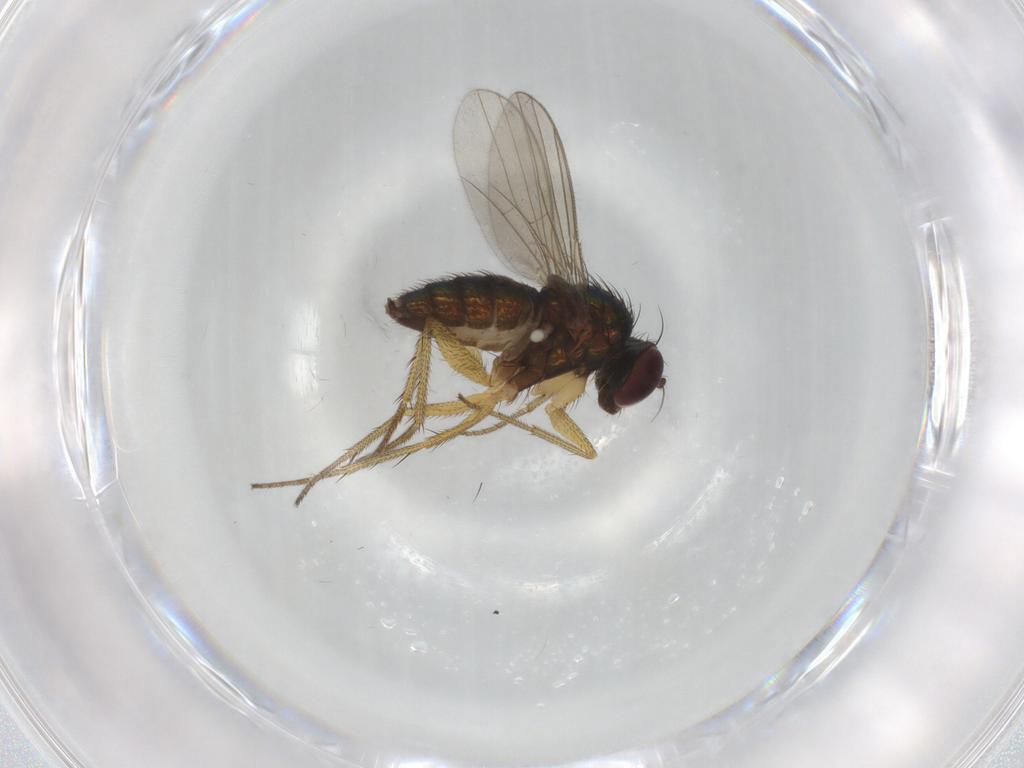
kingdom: Animalia
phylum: Arthropoda
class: Insecta
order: Diptera
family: Dolichopodidae
